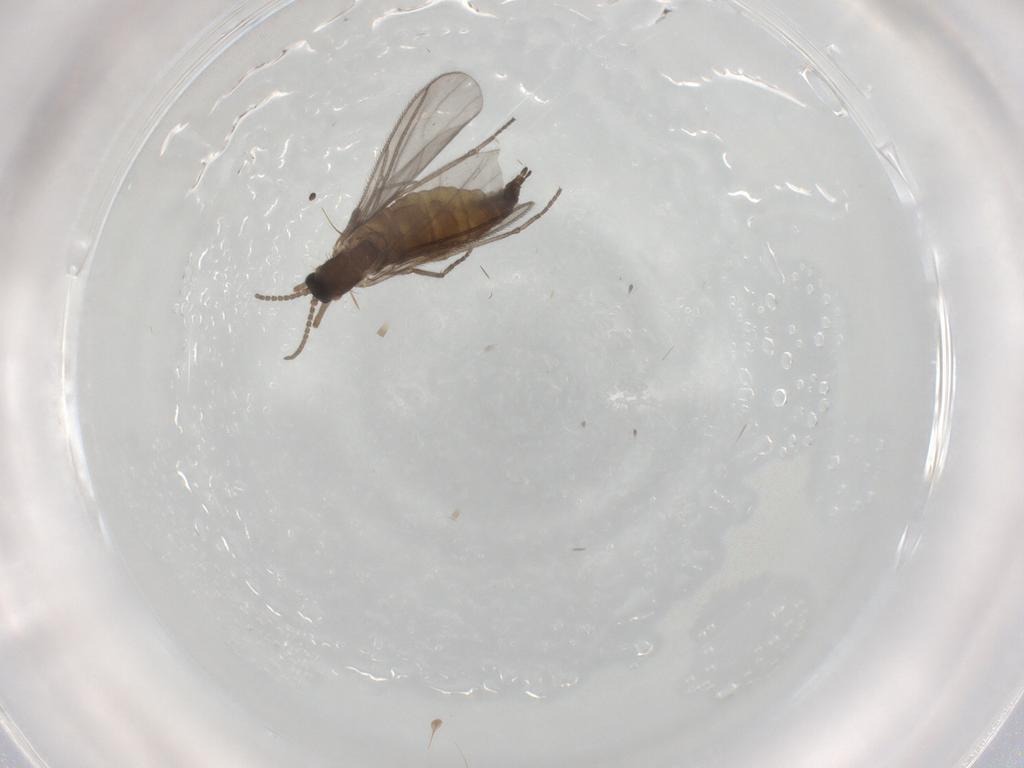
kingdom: Animalia
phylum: Arthropoda
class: Insecta
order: Diptera
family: Sciaridae
